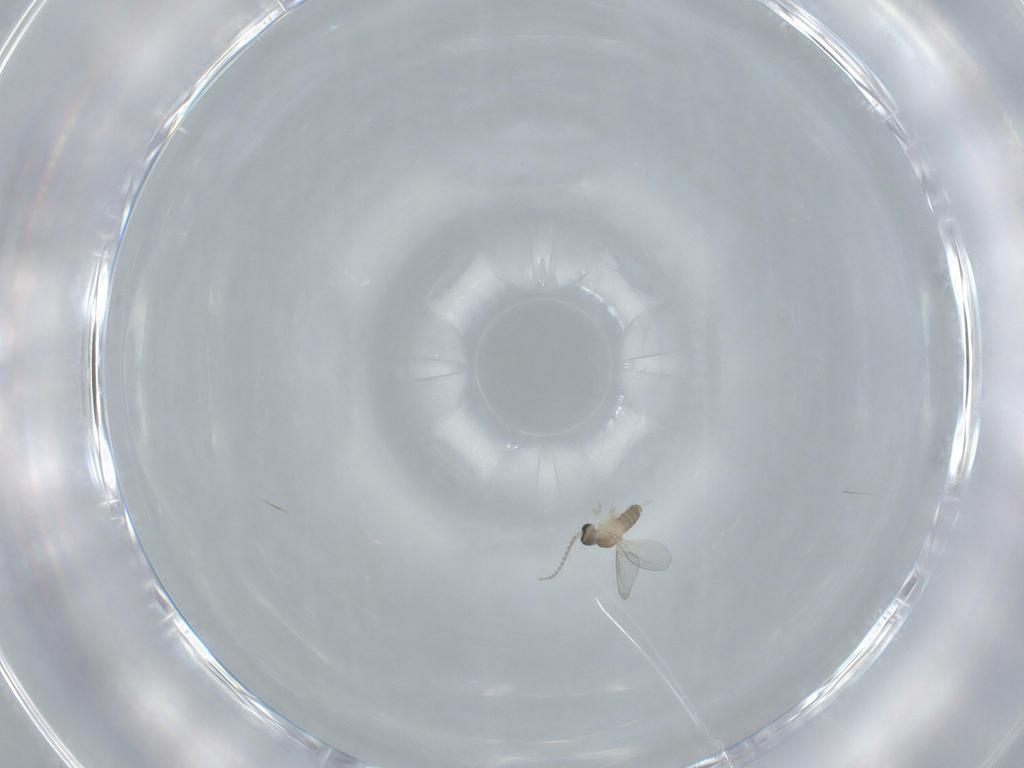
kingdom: Animalia
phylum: Arthropoda
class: Insecta
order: Diptera
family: Cecidomyiidae
